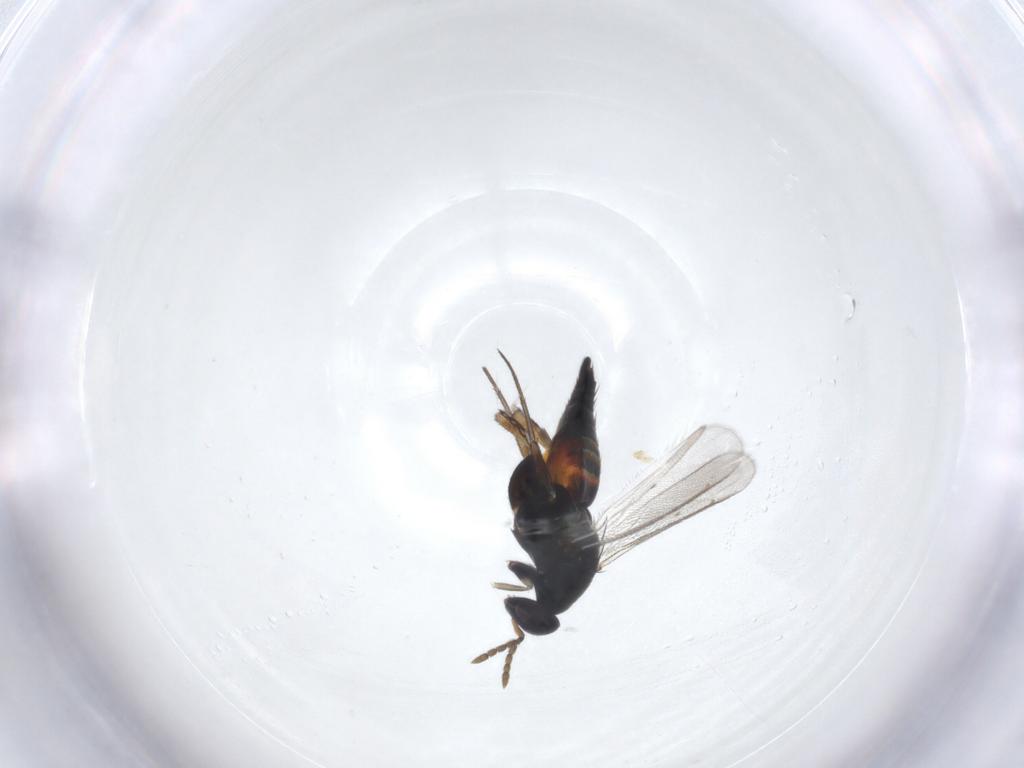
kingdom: Animalia
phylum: Arthropoda
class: Insecta
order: Hymenoptera
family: Eulophidae
